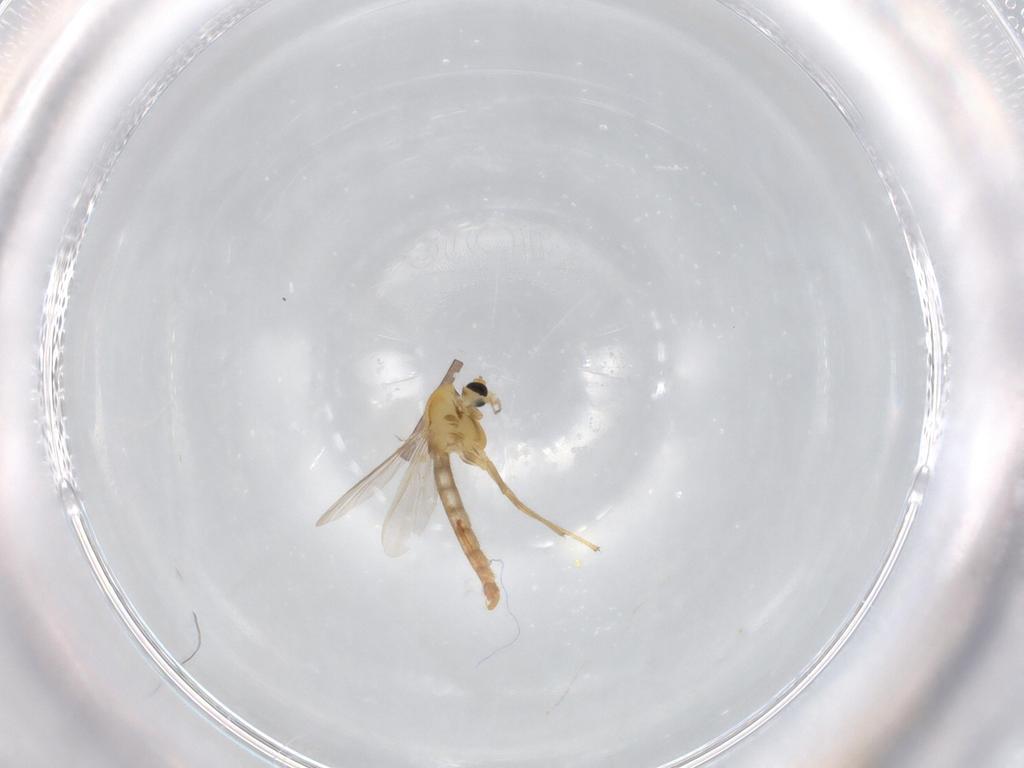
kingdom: Animalia
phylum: Arthropoda
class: Insecta
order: Diptera
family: Chironomidae
